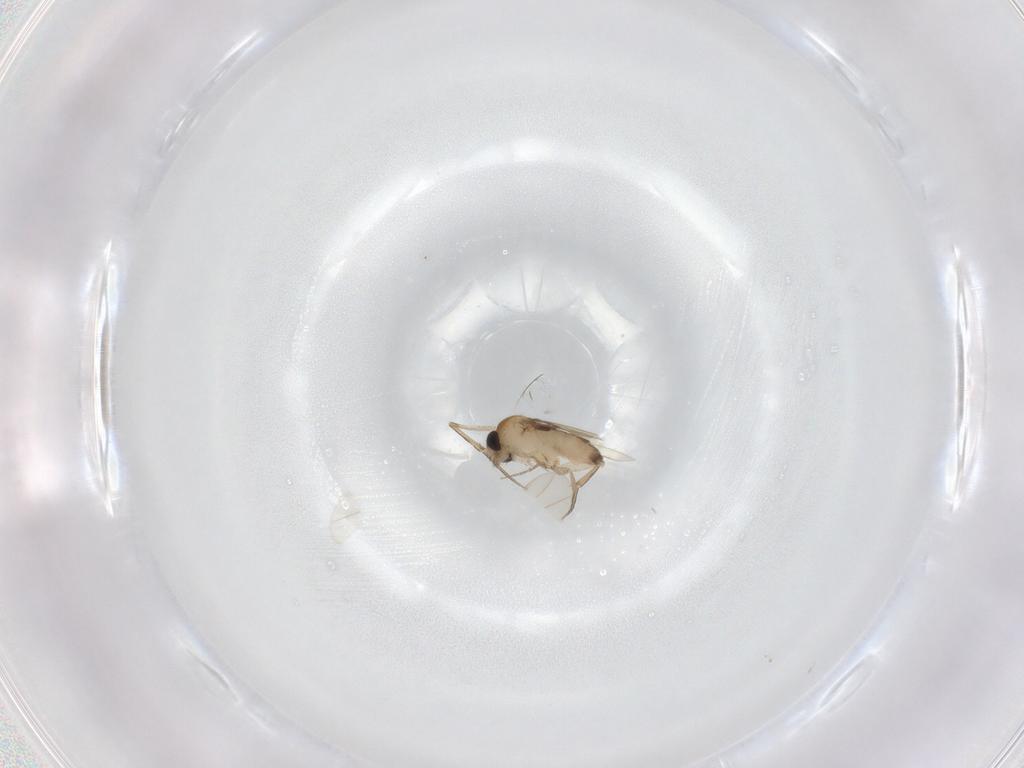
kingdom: Animalia
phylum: Arthropoda
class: Insecta
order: Diptera
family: Phoridae
